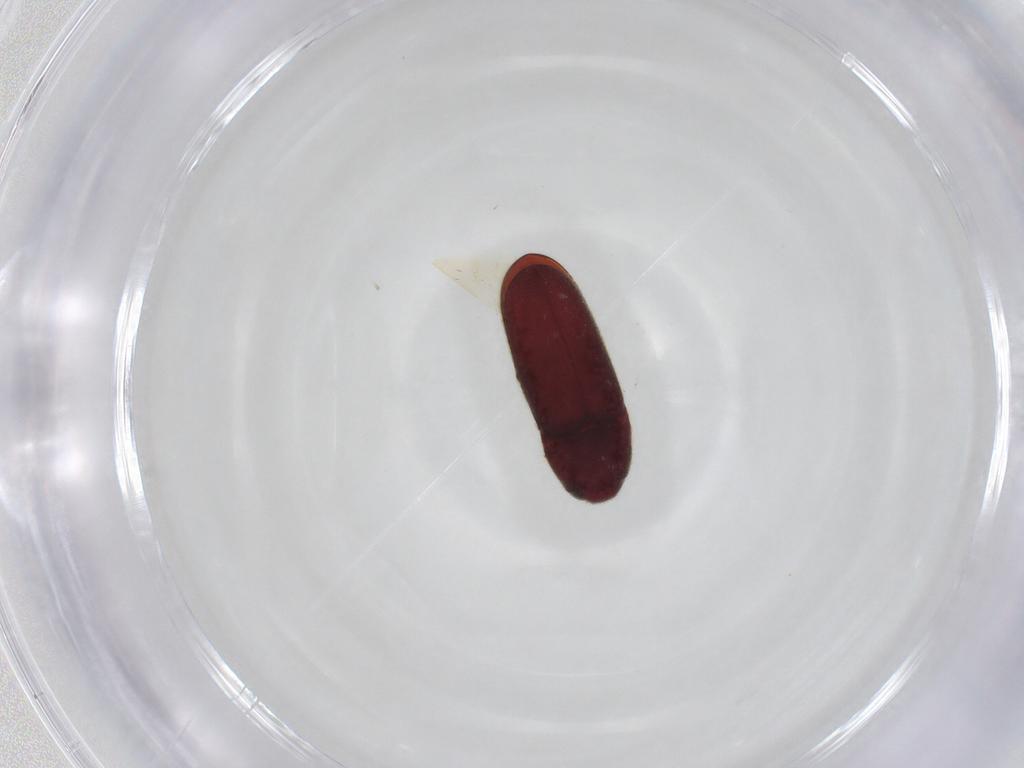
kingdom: Animalia
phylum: Arthropoda
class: Insecta
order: Coleoptera
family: Throscidae
